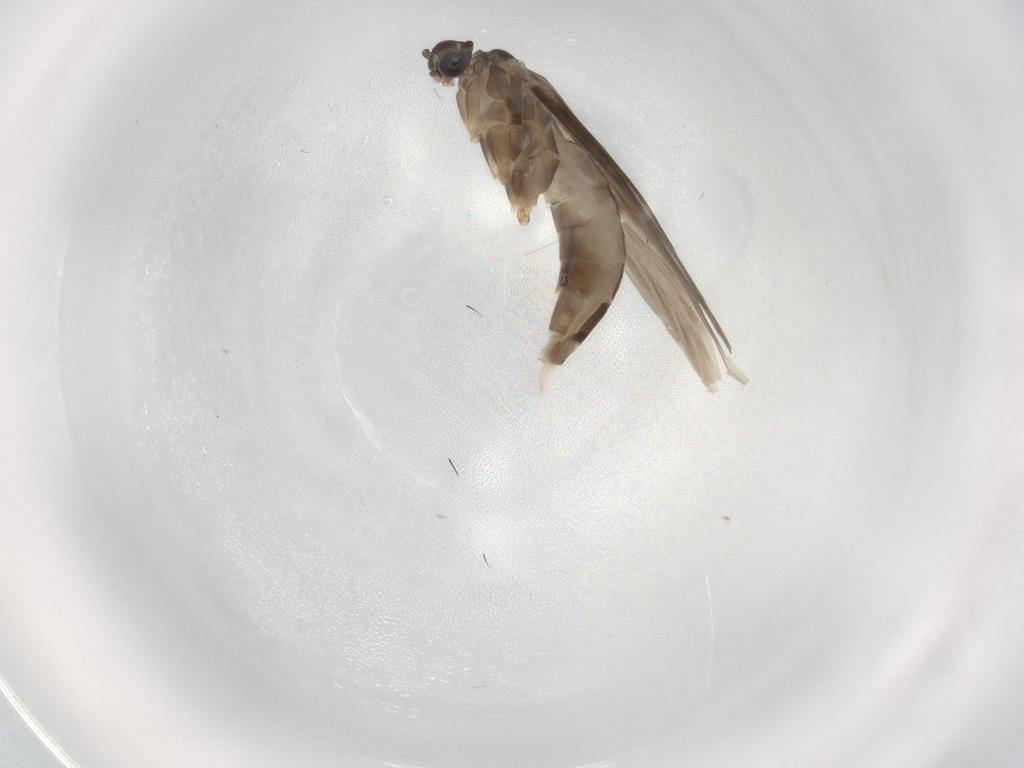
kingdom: Animalia
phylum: Arthropoda
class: Insecta
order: Trichoptera
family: Hydroptilidae
